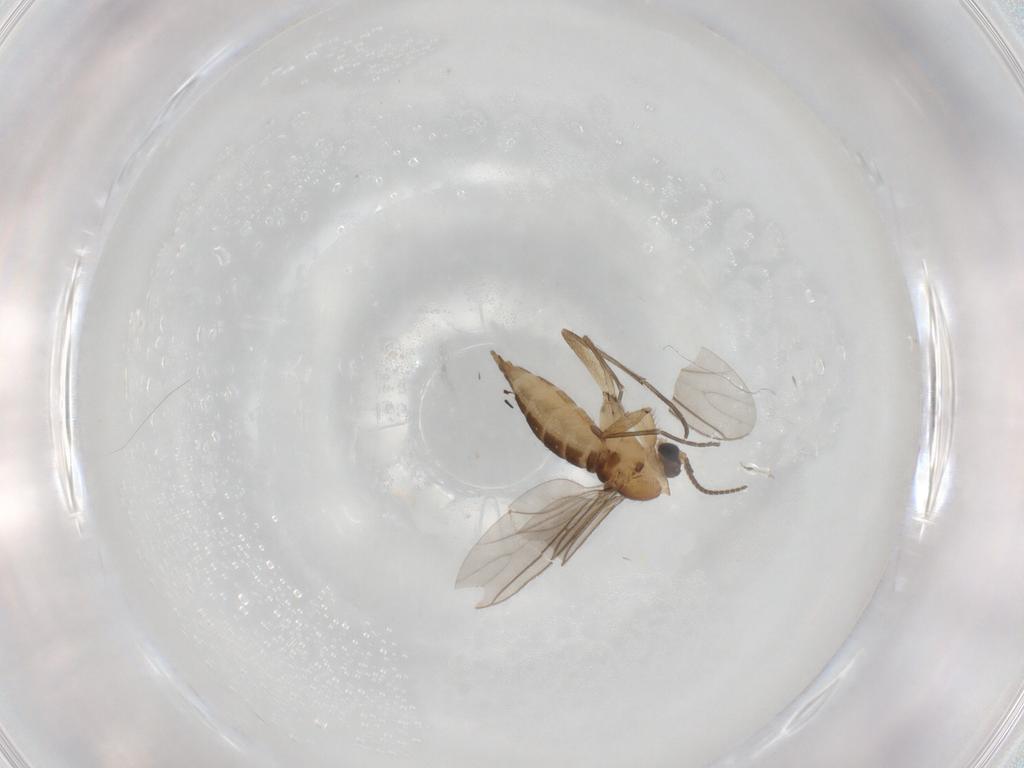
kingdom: Animalia
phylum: Arthropoda
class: Insecta
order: Diptera
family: Sciaridae
